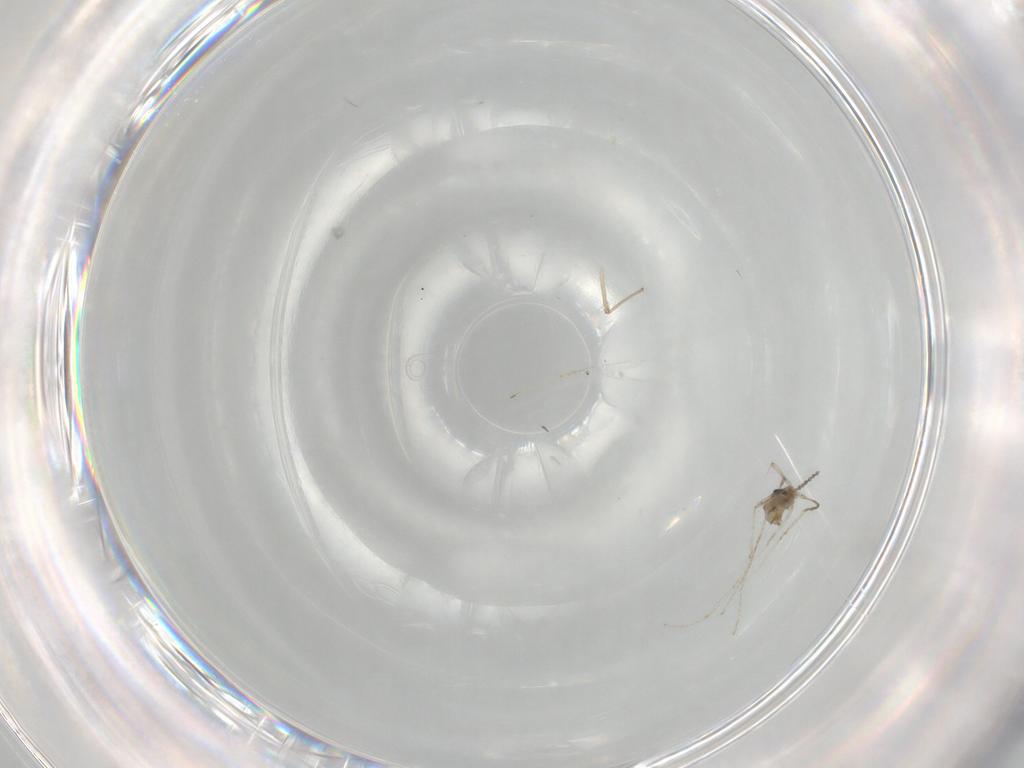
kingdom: Animalia
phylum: Arthropoda
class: Insecta
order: Diptera
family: Cecidomyiidae
